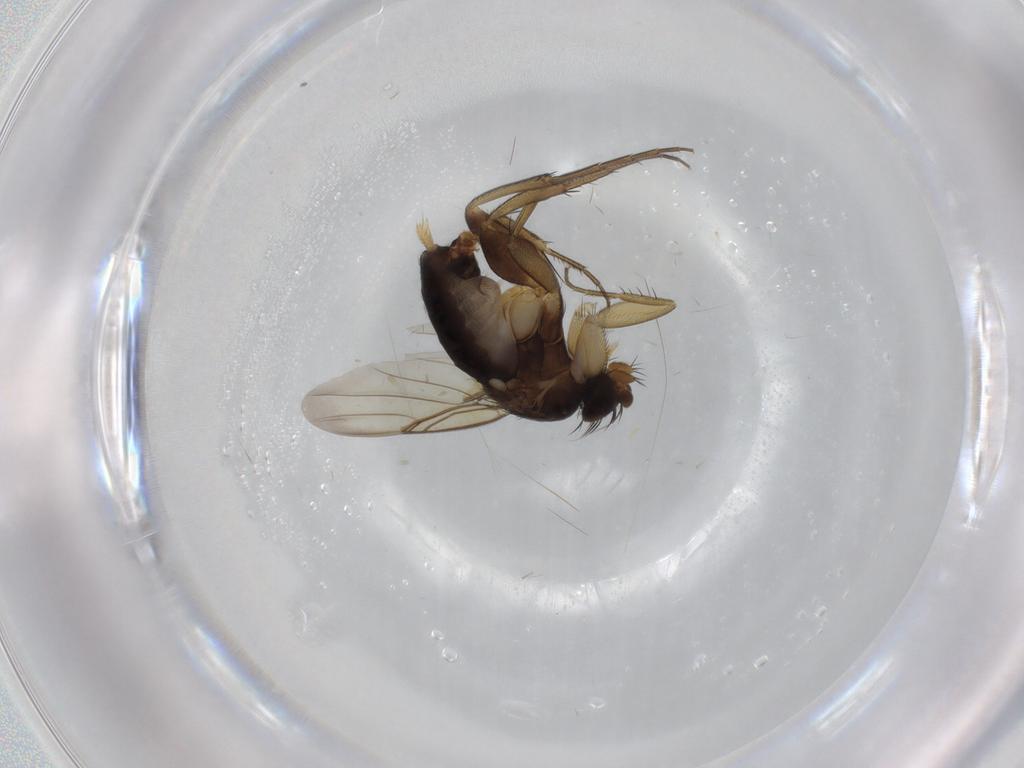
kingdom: Animalia
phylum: Arthropoda
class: Insecta
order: Diptera
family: Phoridae
